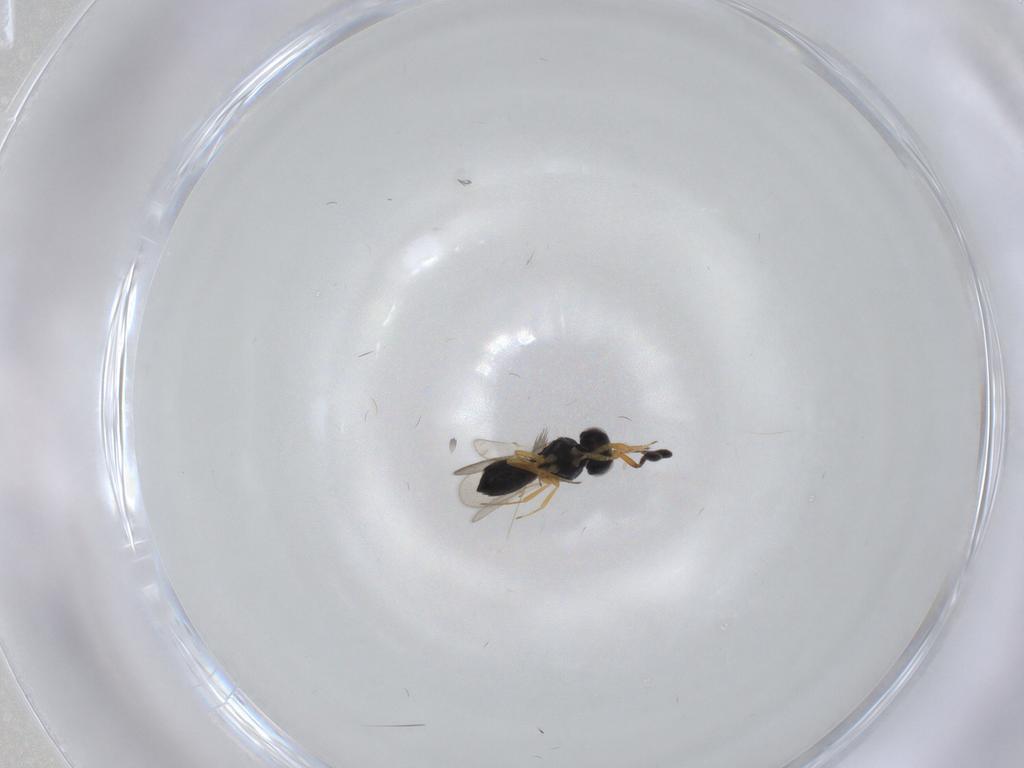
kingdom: Animalia
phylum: Arthropoda
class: Insecta
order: Hymenoptera
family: Scelionidae
